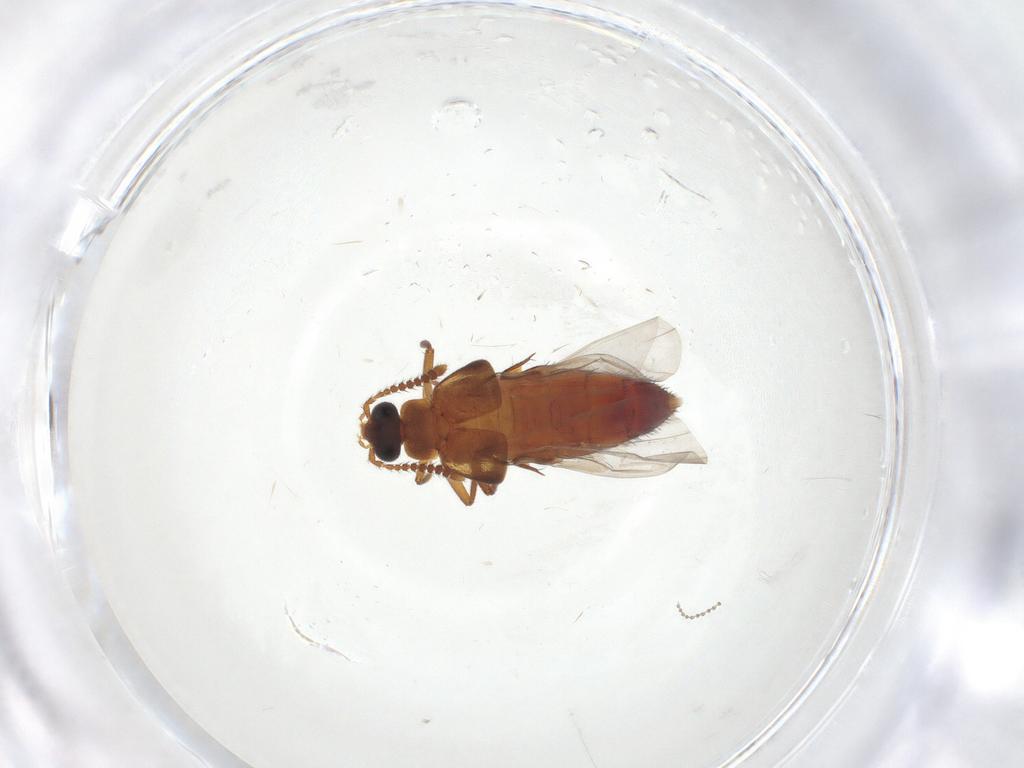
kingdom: Animalia
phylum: Arthropoda
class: Insecta
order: Coleoptera
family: Staphylinidae
